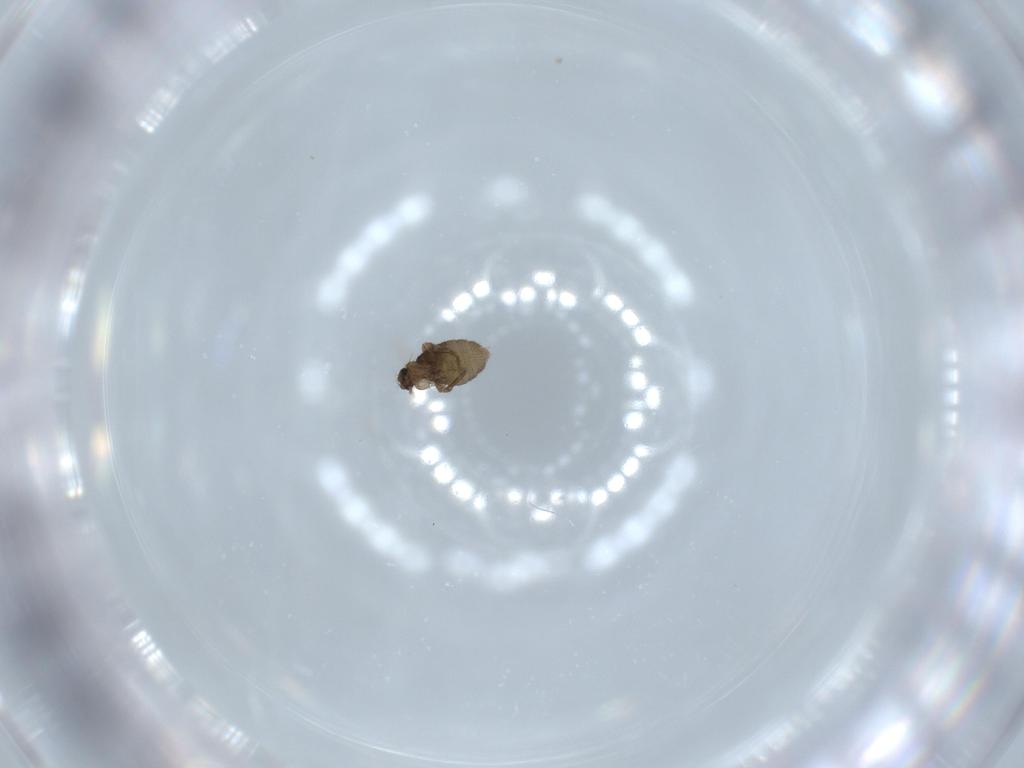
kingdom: Animalia
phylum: Arthropoda
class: Insecta
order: Diptera
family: Phoridae
